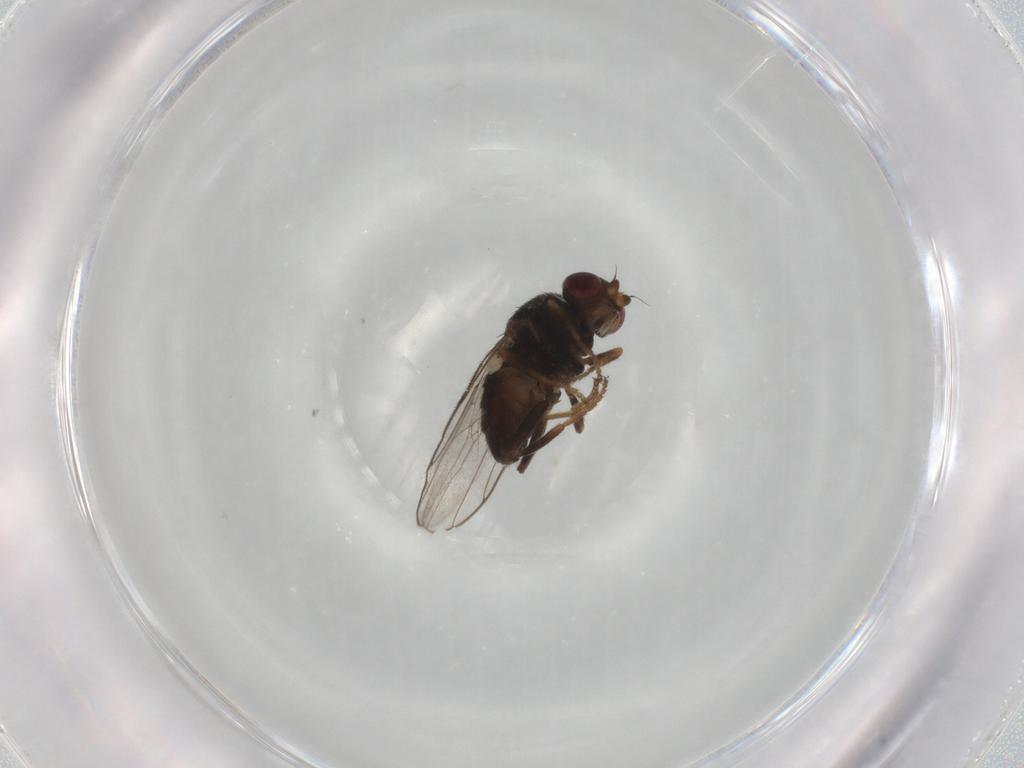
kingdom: Animalia
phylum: Arthropoda
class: Insecta
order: Diptera
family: Chloropidae
